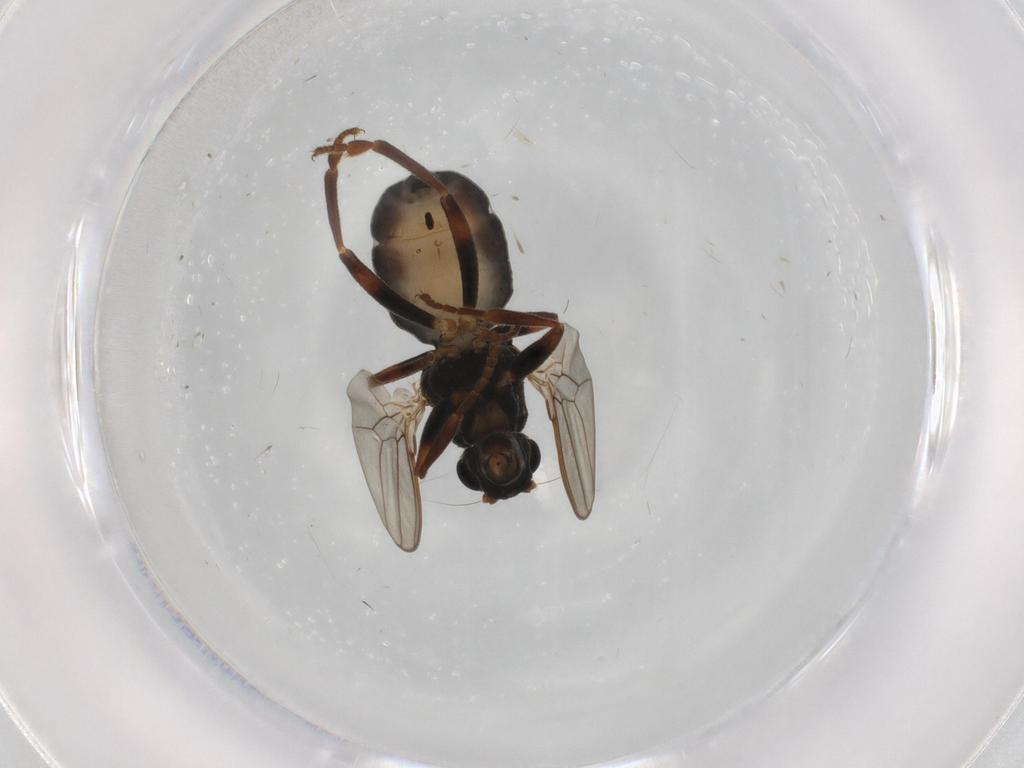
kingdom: Animalia
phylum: Arthropoda
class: Insecta
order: Diptera
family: Sphaeroceridae
